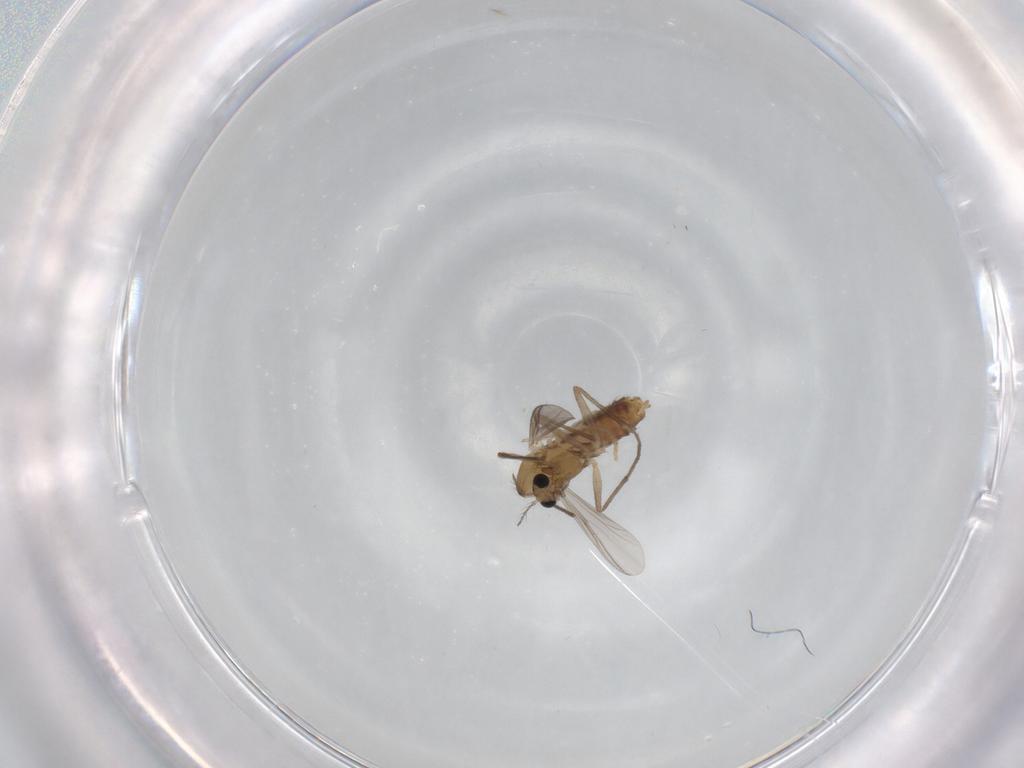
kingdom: Animalia
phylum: Arthropoda
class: Insecta
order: Diptera
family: Chironomidae
